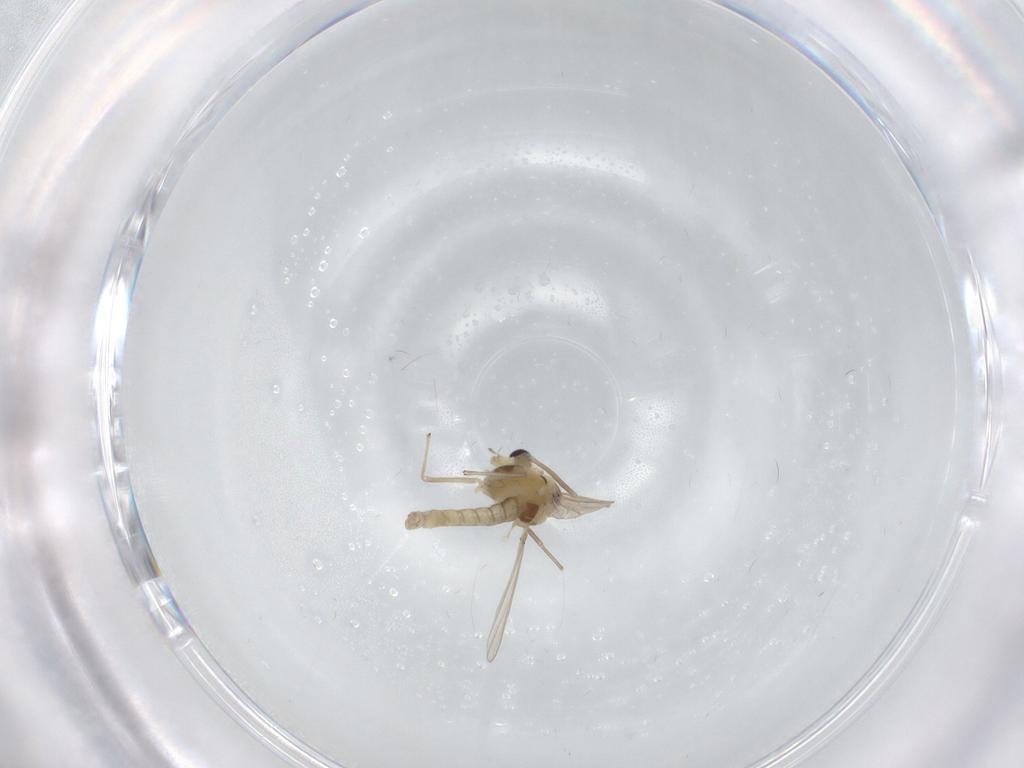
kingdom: Animalia
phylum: Arthropoda
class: Insecta
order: Diptera
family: Chironomidae
